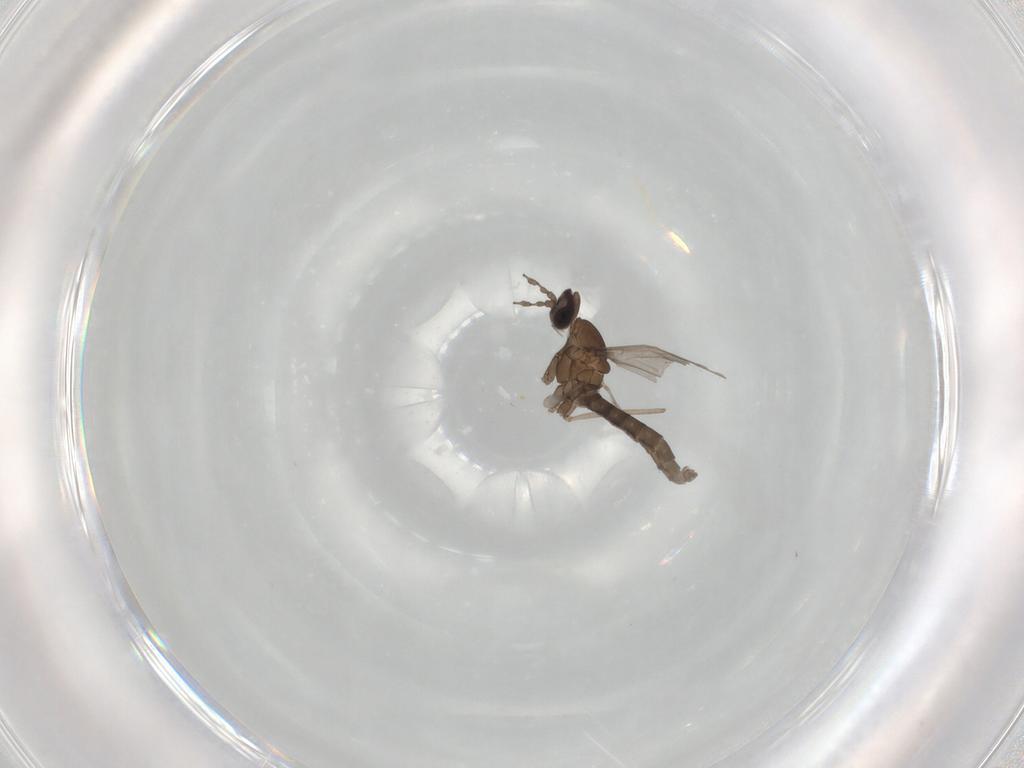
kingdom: Animalia
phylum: Arthropoda
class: Insecta
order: Diptera
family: Cecidomyiidae
